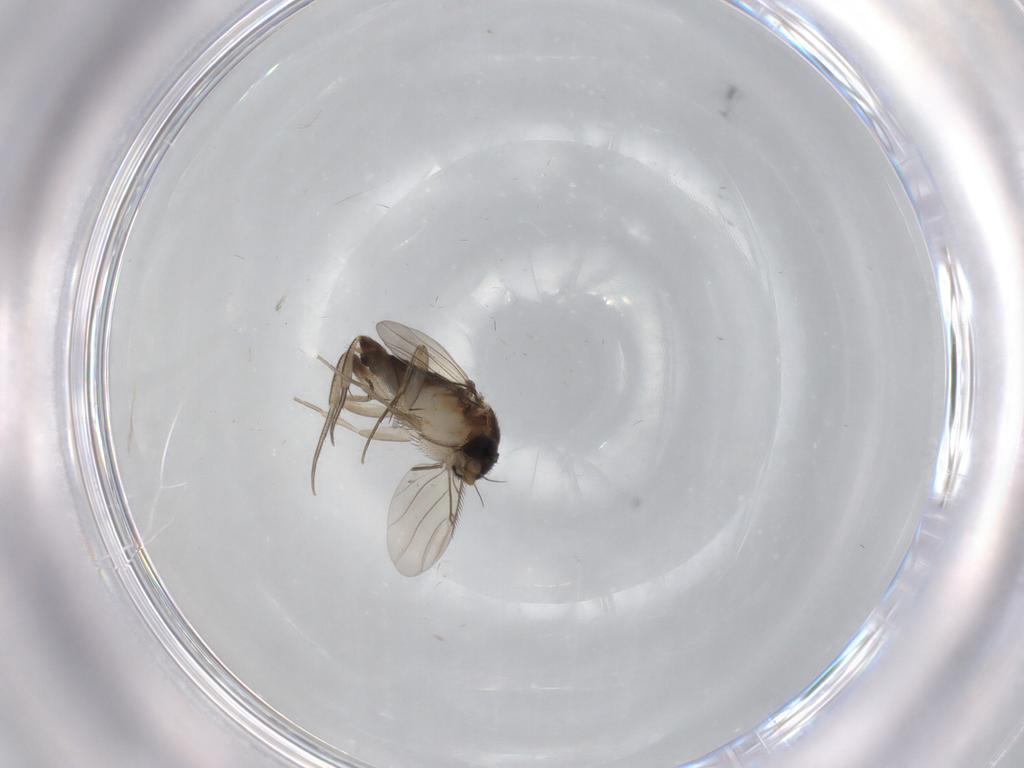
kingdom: Animalia
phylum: Arthropoda
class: Insecta
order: Diptera
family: Phoridae
